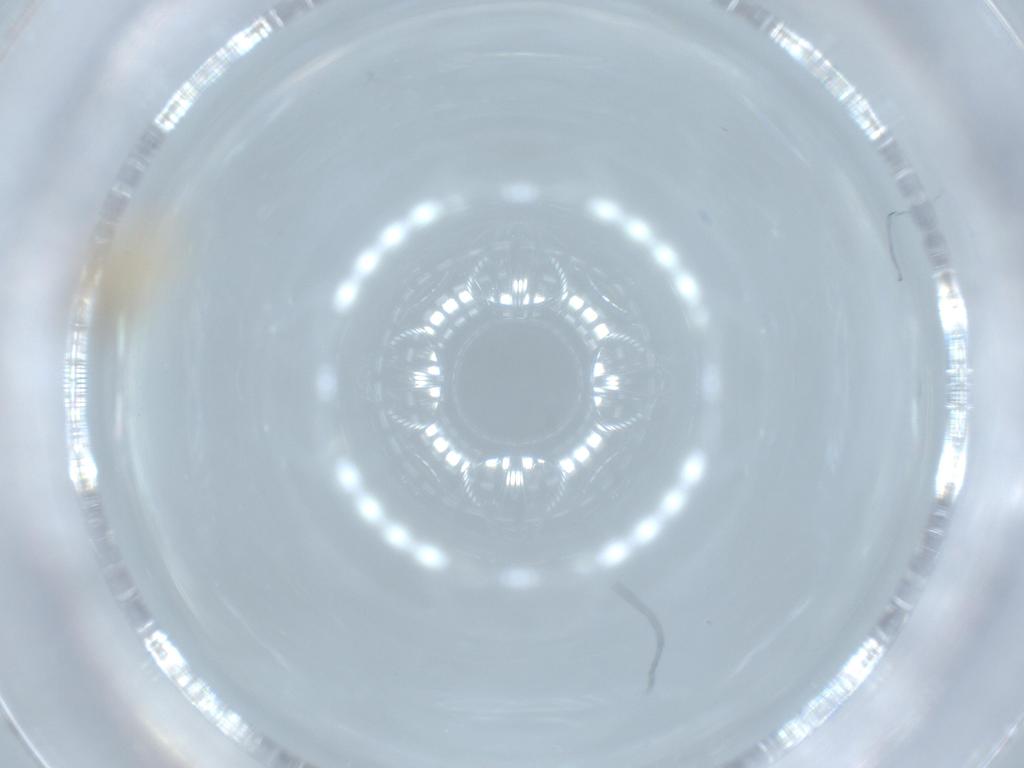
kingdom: Animalia
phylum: Arthropoda
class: Insecta
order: Diptera
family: Cecidomyiidae
